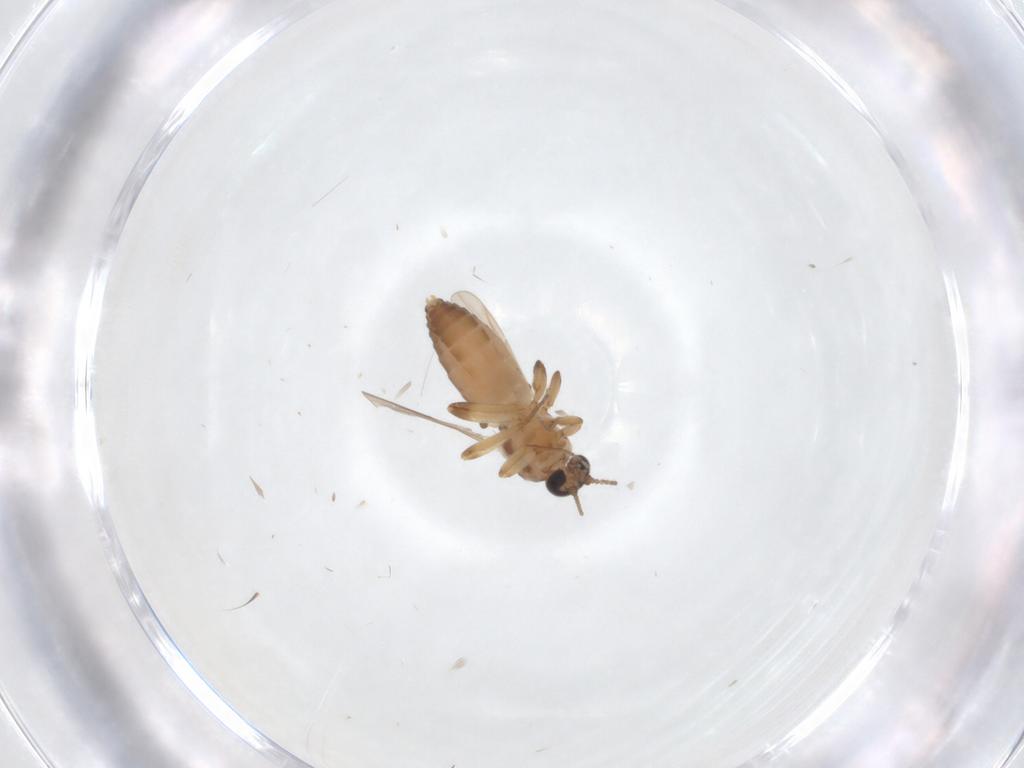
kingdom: Animalia
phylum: Arthropoda
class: Insecta
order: Diptera
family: Ceratopogonidae
